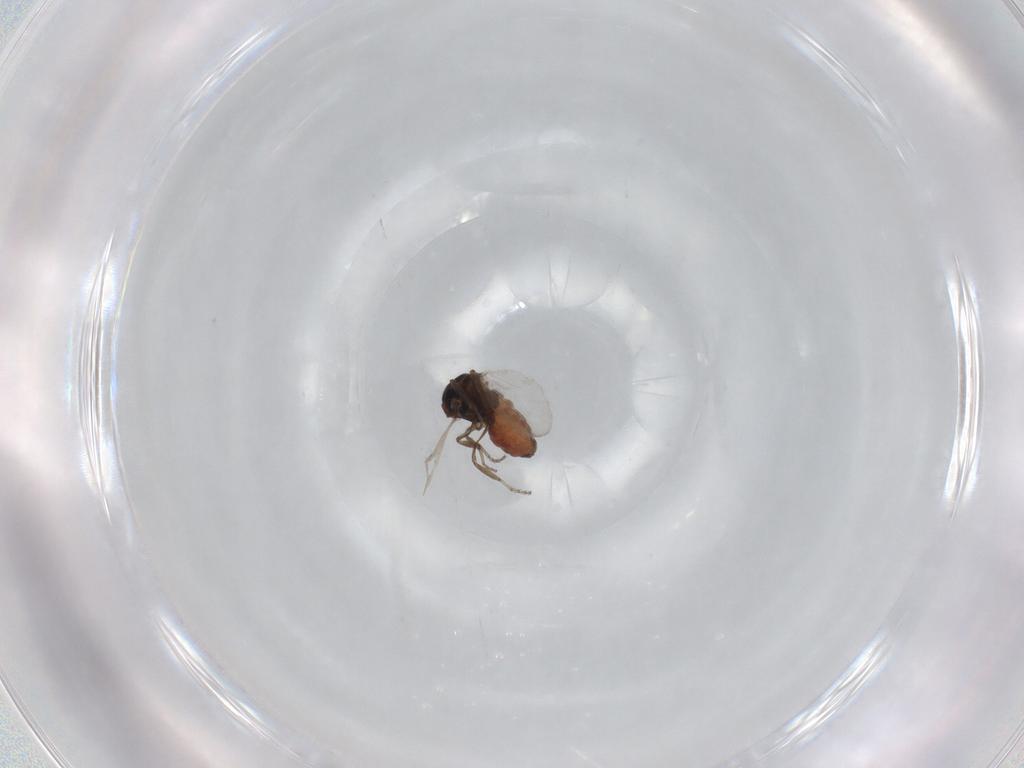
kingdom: Animalia
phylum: Arthropoda
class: Insecta
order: Diptera
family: Ceratopogonidae
